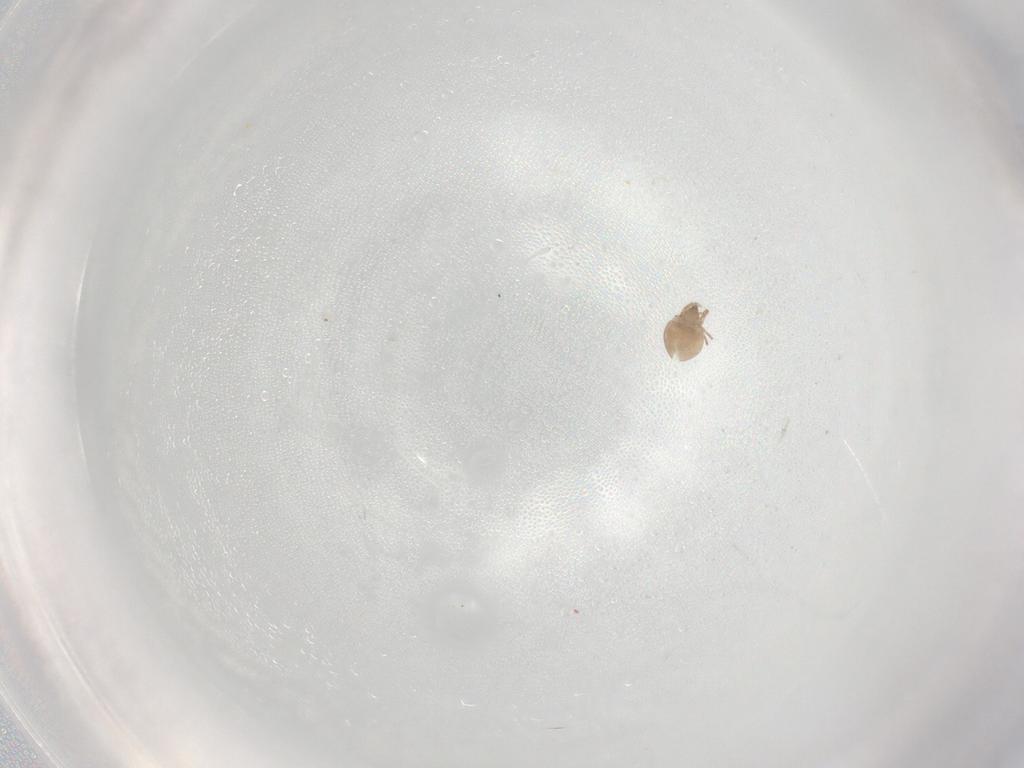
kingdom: Animalia
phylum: Arthropoda
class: Arachnida
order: Sarcoptiformes
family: Galumnidae
